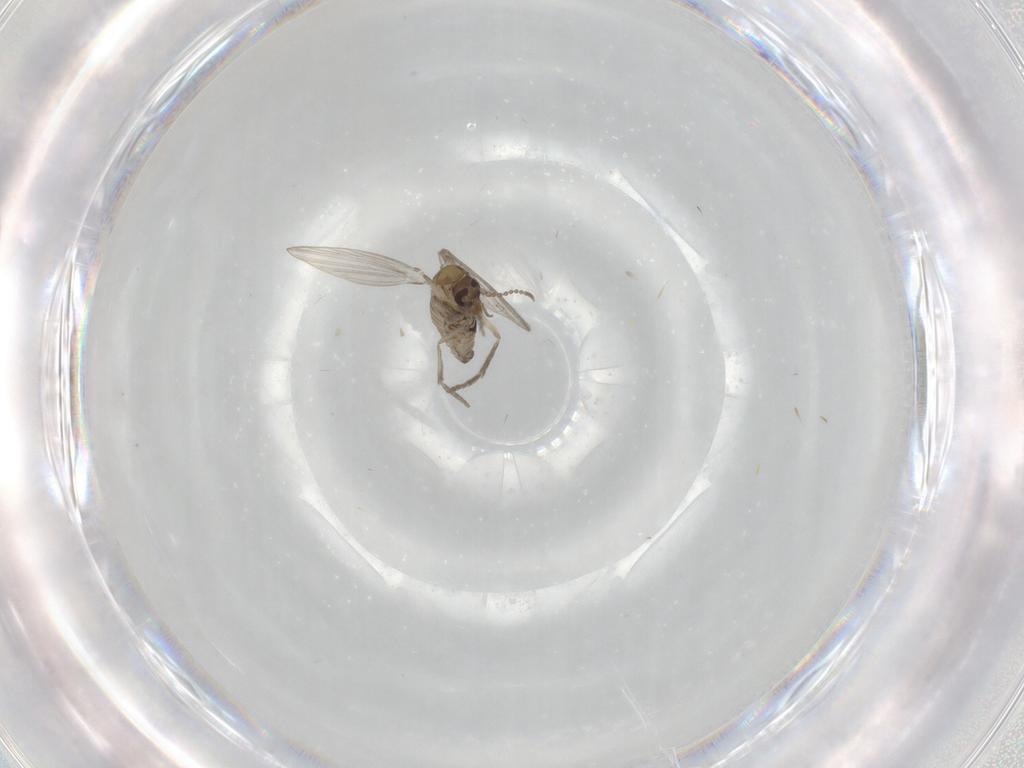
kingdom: Animalia
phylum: Arthropoda
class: Insecta
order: Diptera
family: Psychodidae
